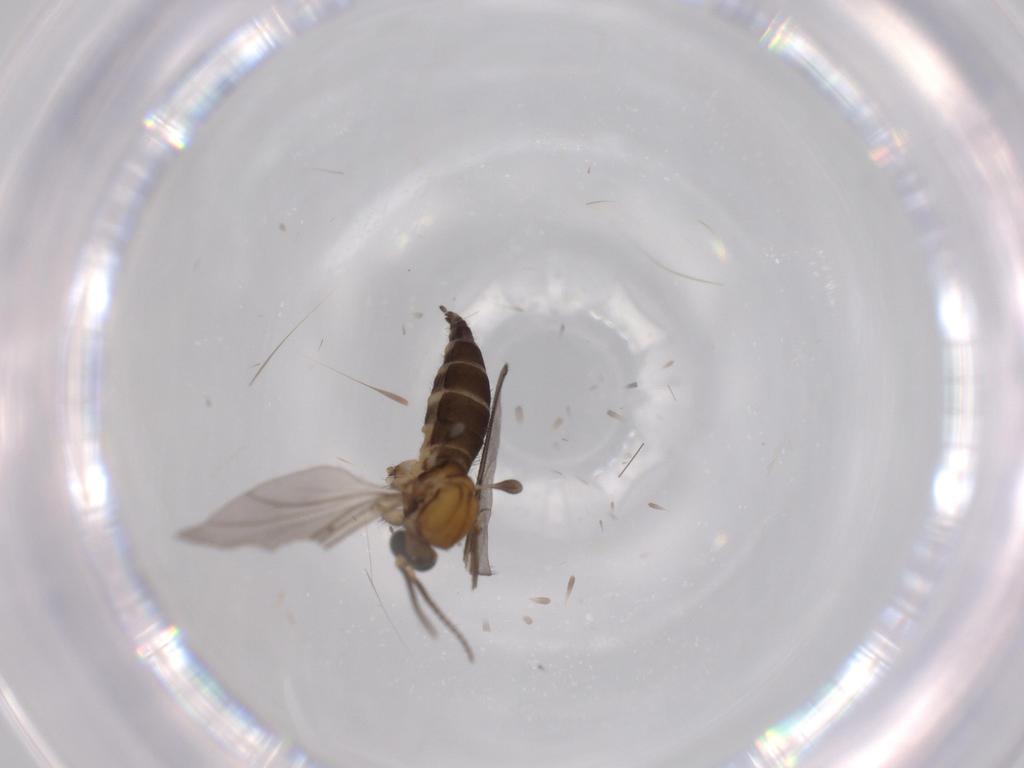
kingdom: Animalia
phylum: Arthropoda
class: Insecta
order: Diptera
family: Sciaridae
